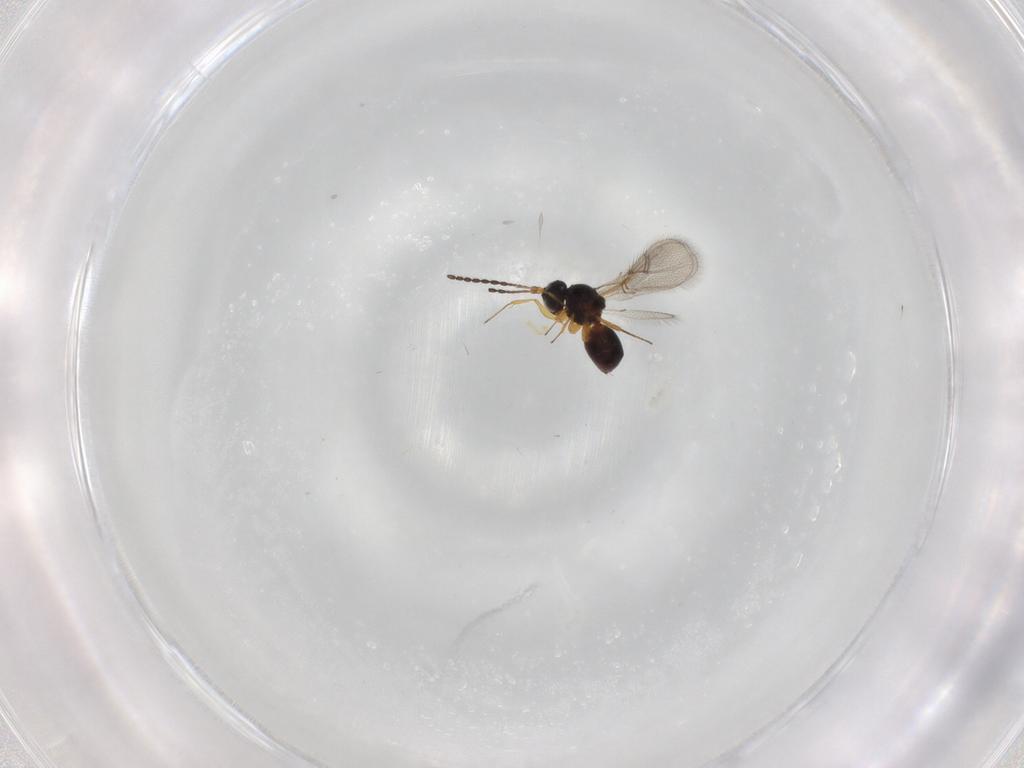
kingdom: Animalia
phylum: Arthropoda
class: Insecta
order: Hymenoptera
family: Figitidae
